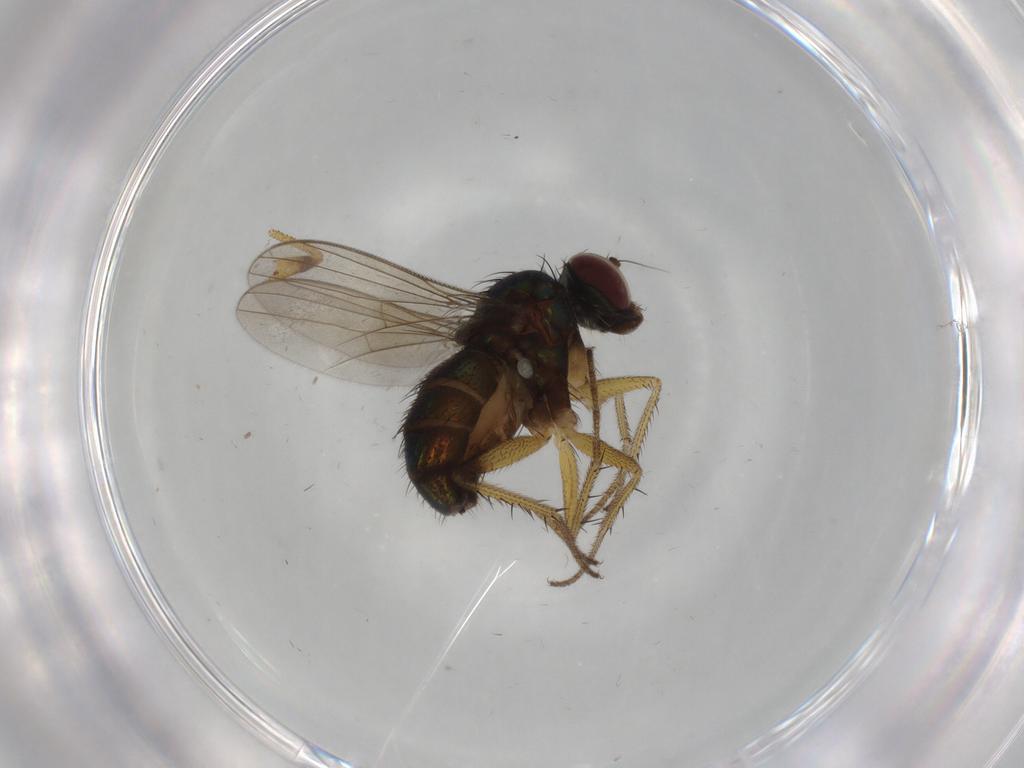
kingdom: Animalia
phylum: Arthropoda
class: Insecta
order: Diptera
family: Dolichopodidae
